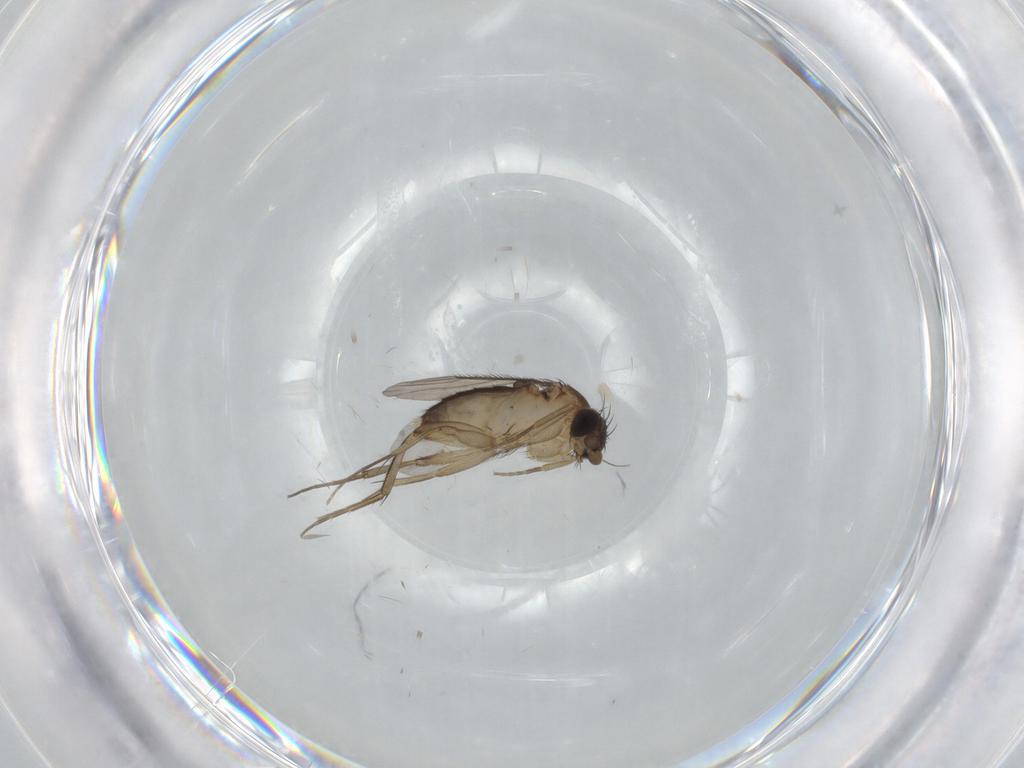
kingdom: Animalia
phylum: Arthropoda
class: Insecta
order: Diptera
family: Phoridae
